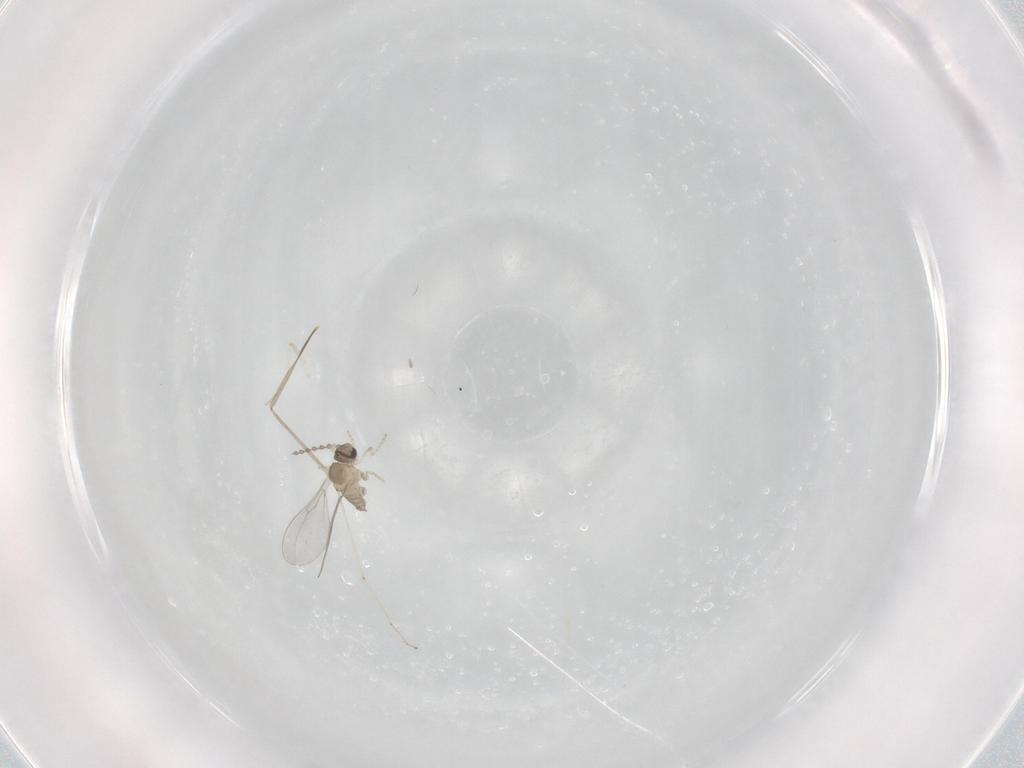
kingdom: Animalia
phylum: Arthropoda
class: Insecta
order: Diptera
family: Cecidomyiidae
